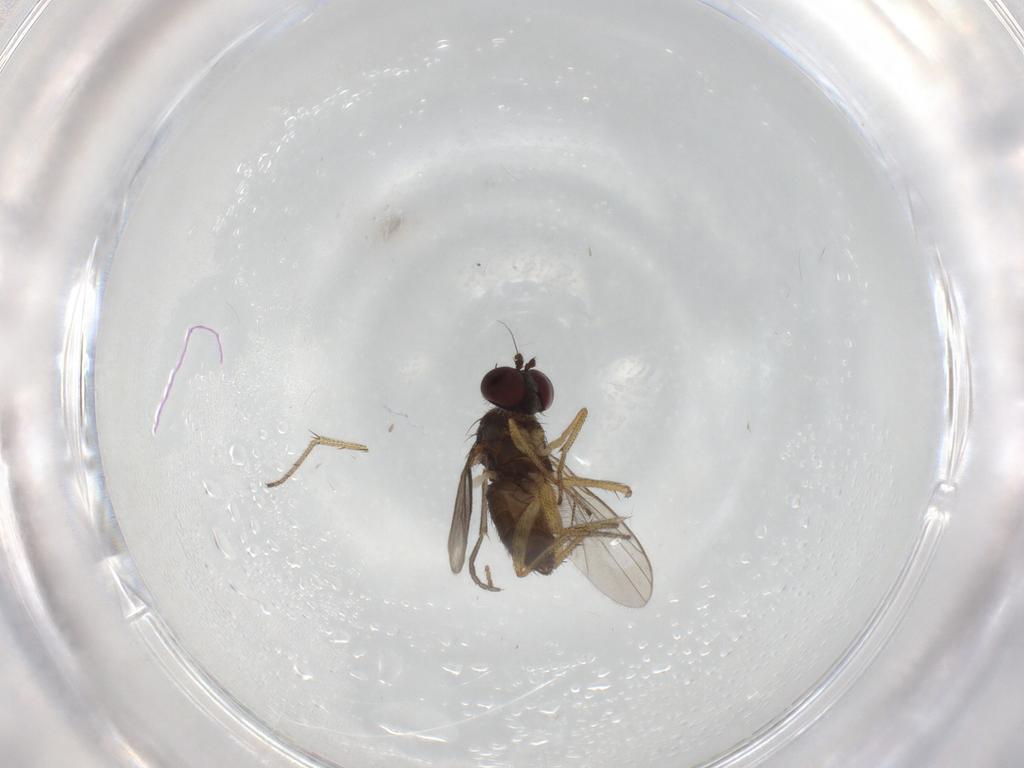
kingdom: Animalia
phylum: Arthropoda
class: Insecta
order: Diptera
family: Sciaridae
